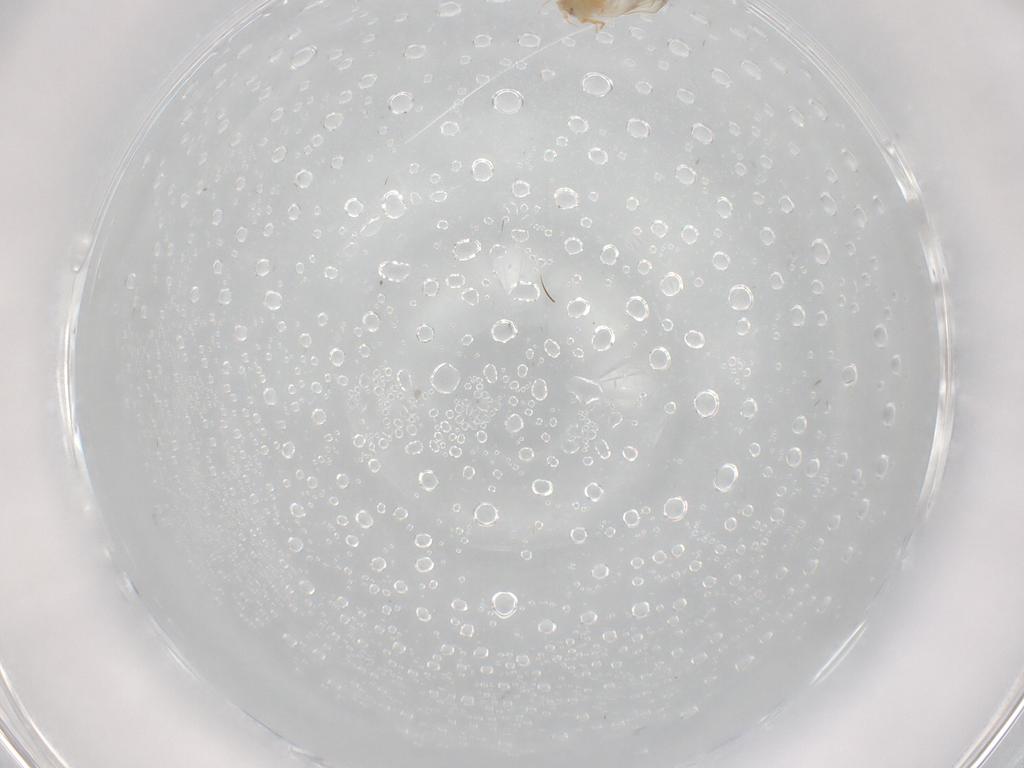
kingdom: Animalia
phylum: Arthropoda
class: Insecta
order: Hemiptera
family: Aleyrodidae
